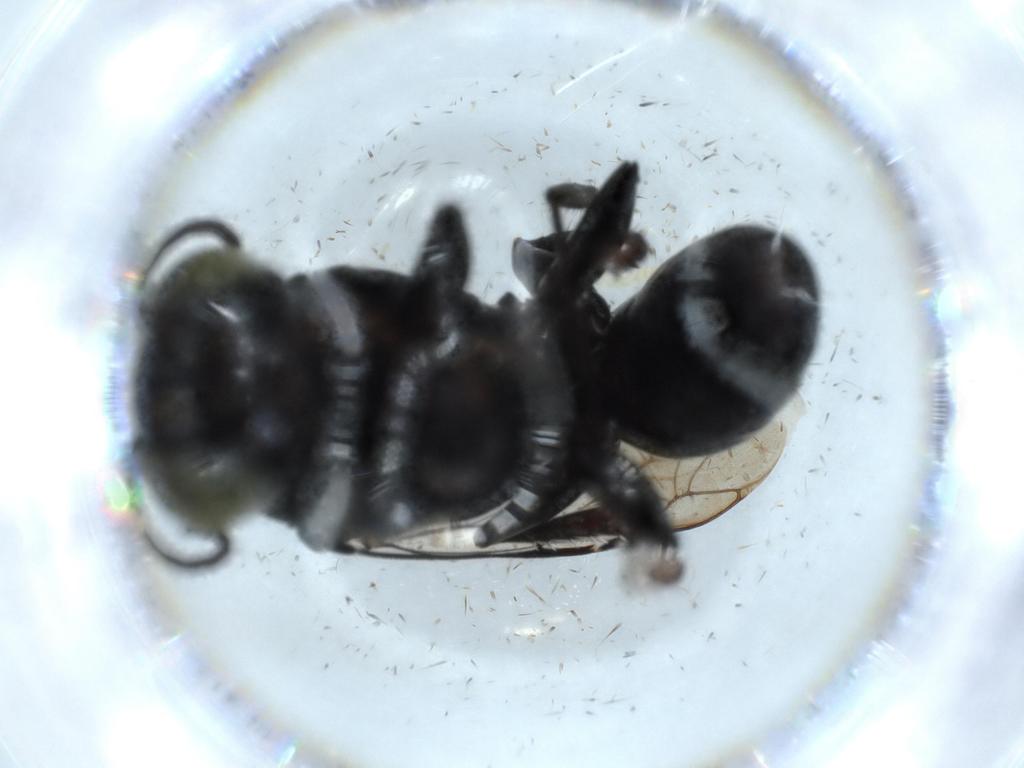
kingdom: Animalia
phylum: Arthropoda
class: Insecta
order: Hymenoptera
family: Crabronidae
